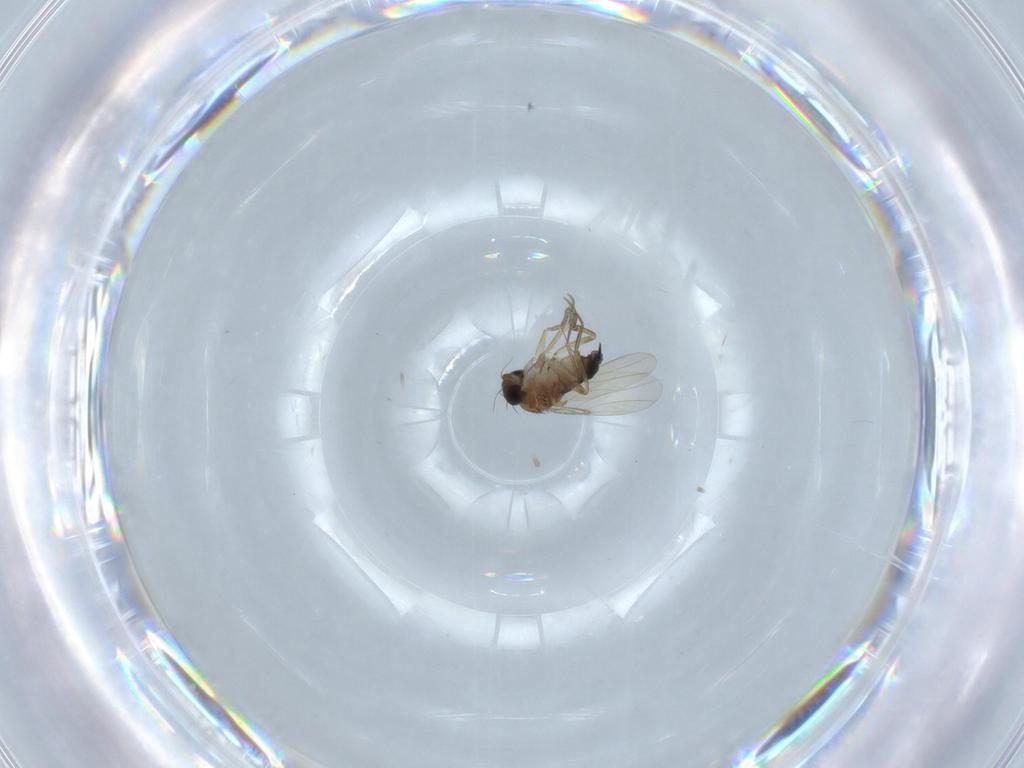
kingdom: Animalia
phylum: Arthropoda
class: Insecta
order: Diptera
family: Phoridae
